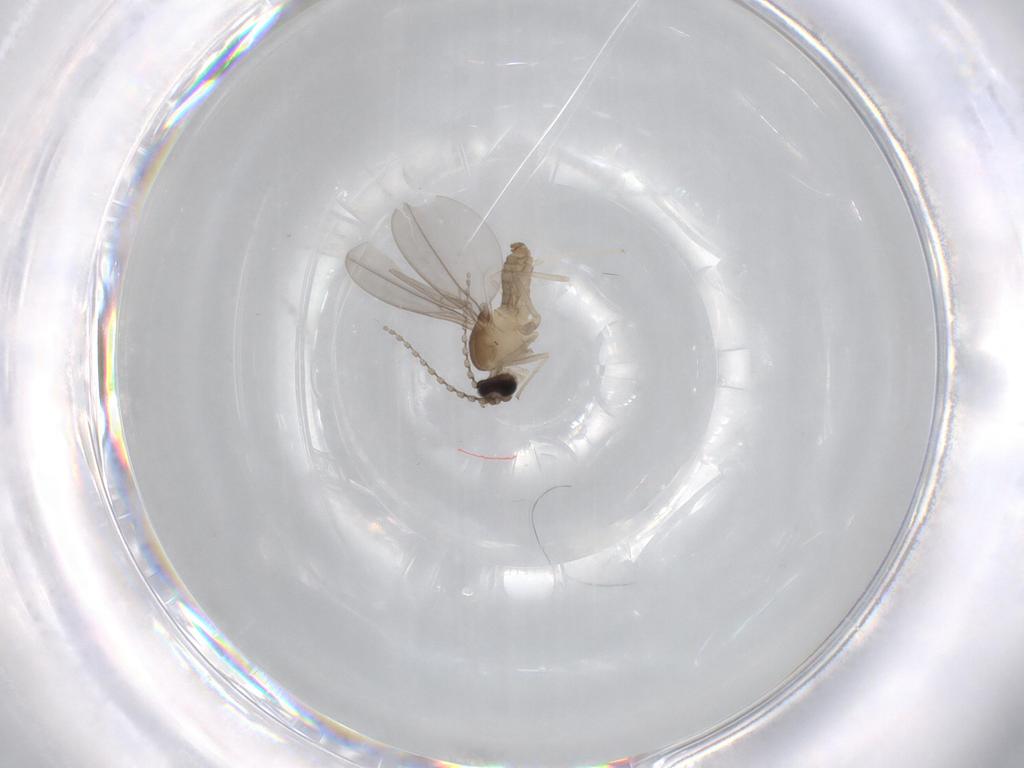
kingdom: Animalia
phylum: Arthropoda
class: Insecta
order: Diptera
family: Cecidomyiidae
